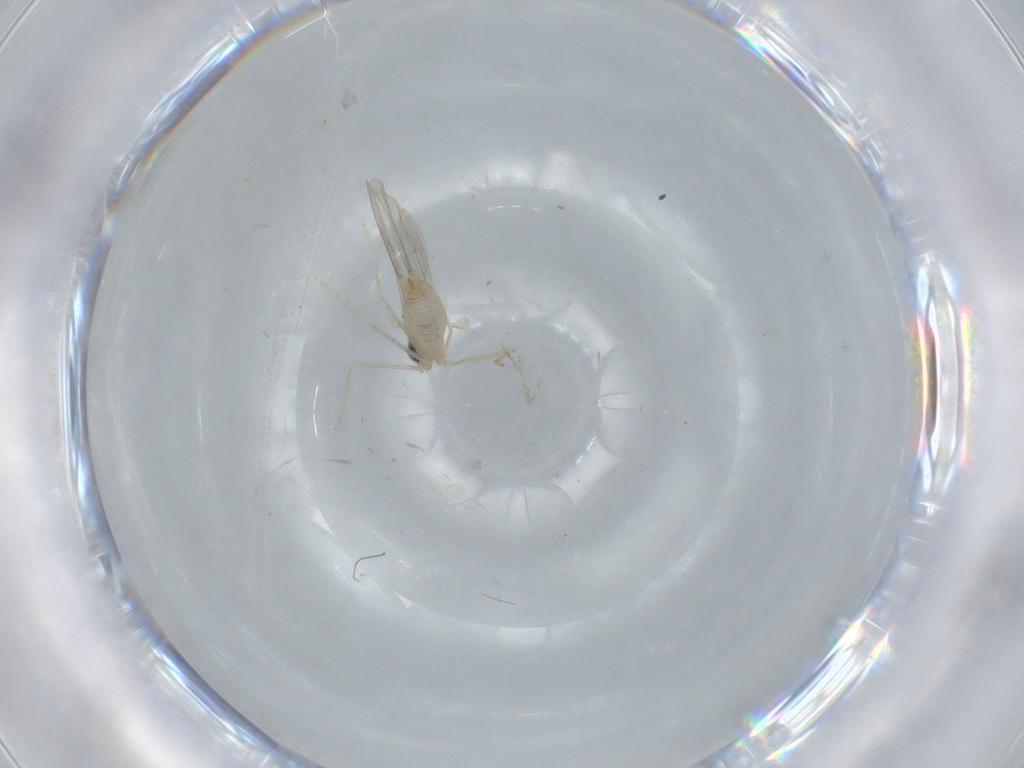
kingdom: Animalia
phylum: Arthropoda
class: Insecta
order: Diptera
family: Cecidomyiidae
